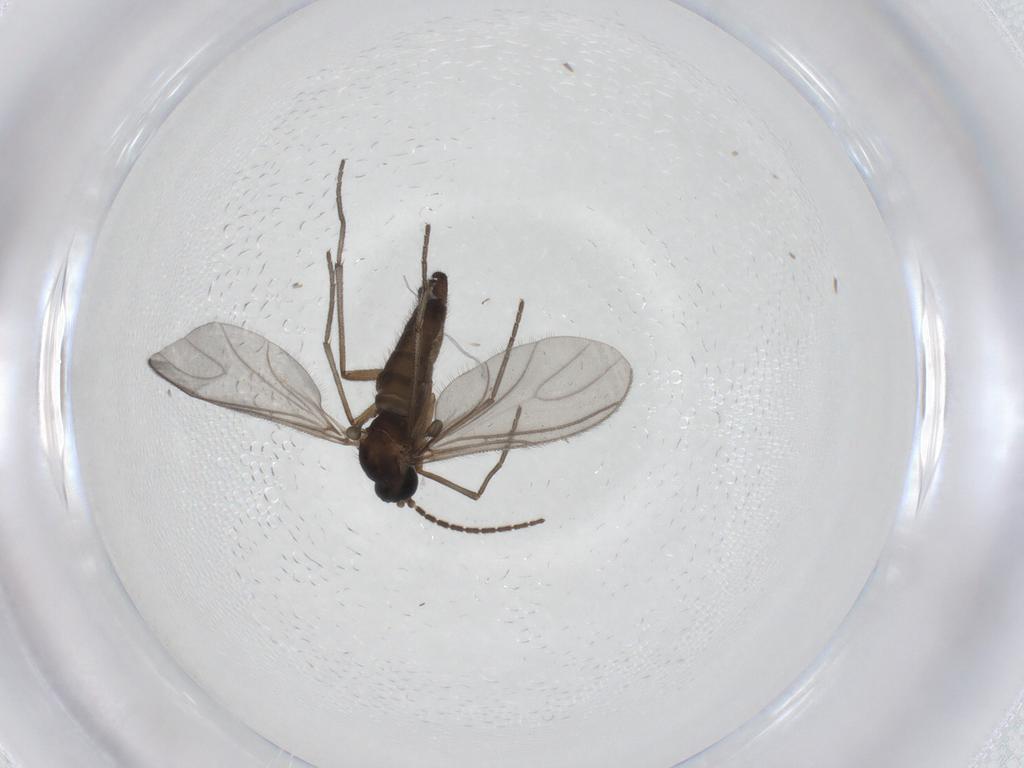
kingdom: Animalia
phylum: Arthropoda
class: Insecta
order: Diptera
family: Sciaridae
